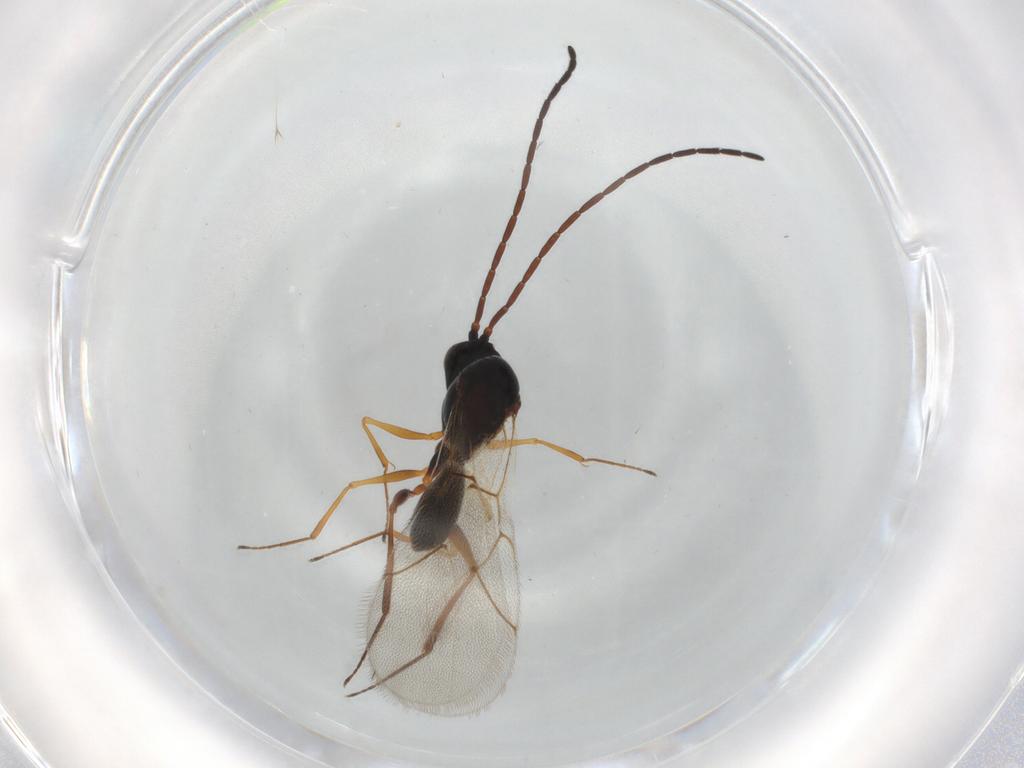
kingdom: Animalia
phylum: Arthropoda
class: Insecta
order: Hymenoptera
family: Figitidae
